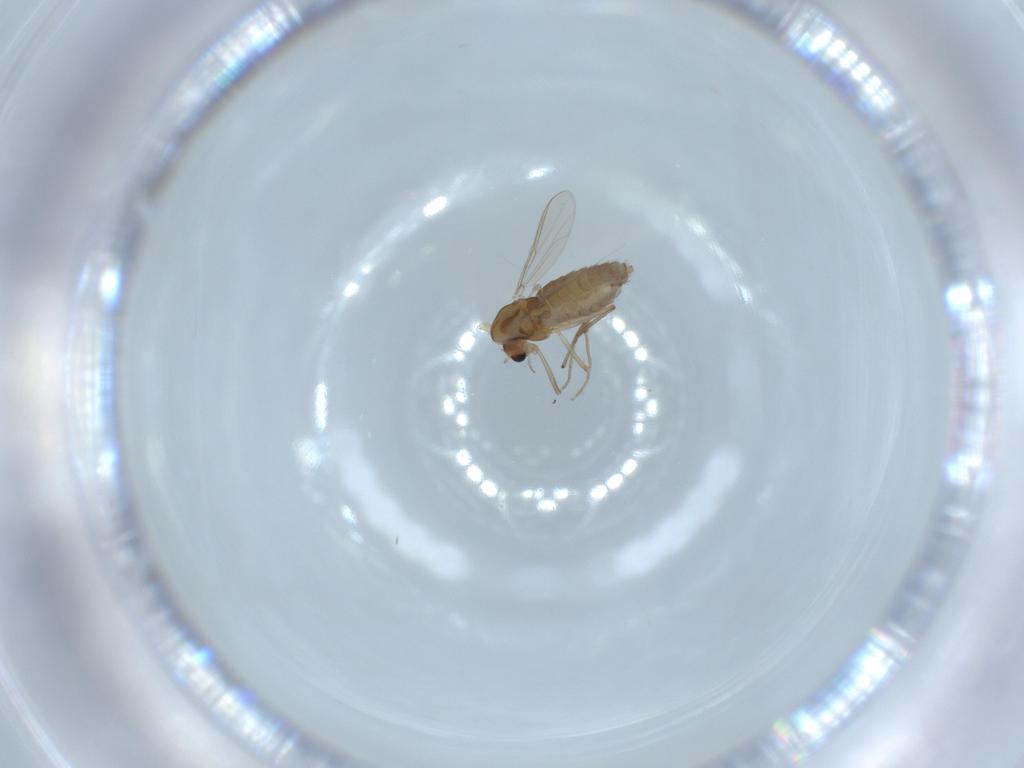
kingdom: Animalia
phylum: Arthropoda
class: Insecta
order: Diptera
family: Chironomidae
